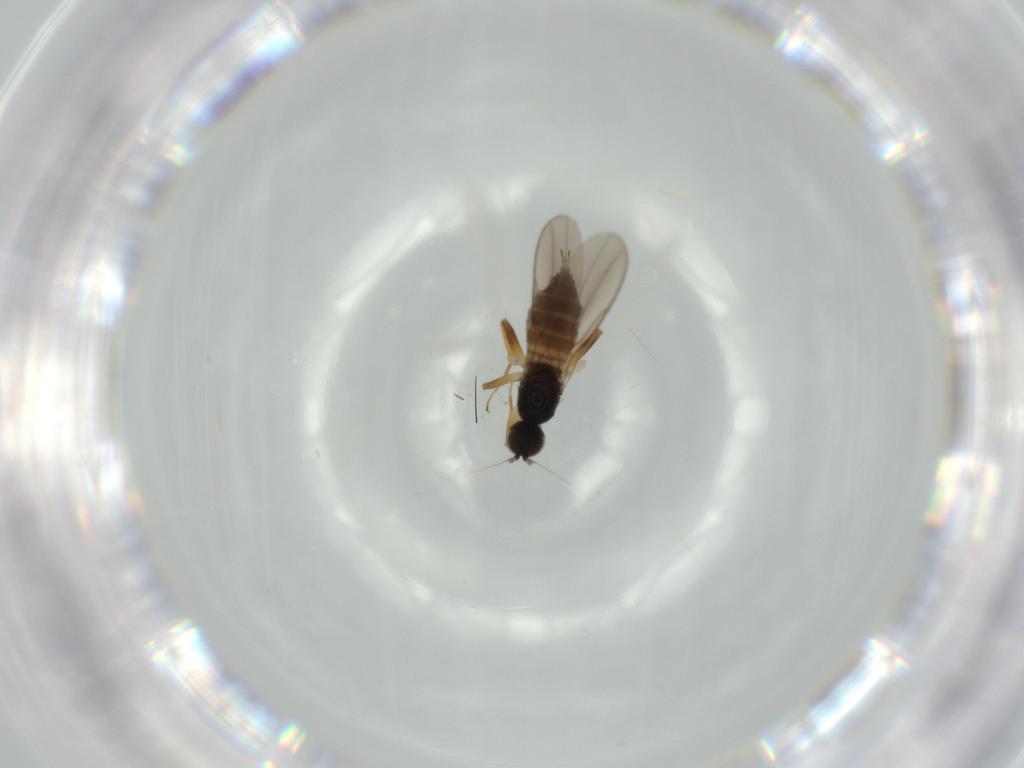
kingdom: Animalia
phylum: Arthropoda
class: Insecta
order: Diptera
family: Hybotidae
